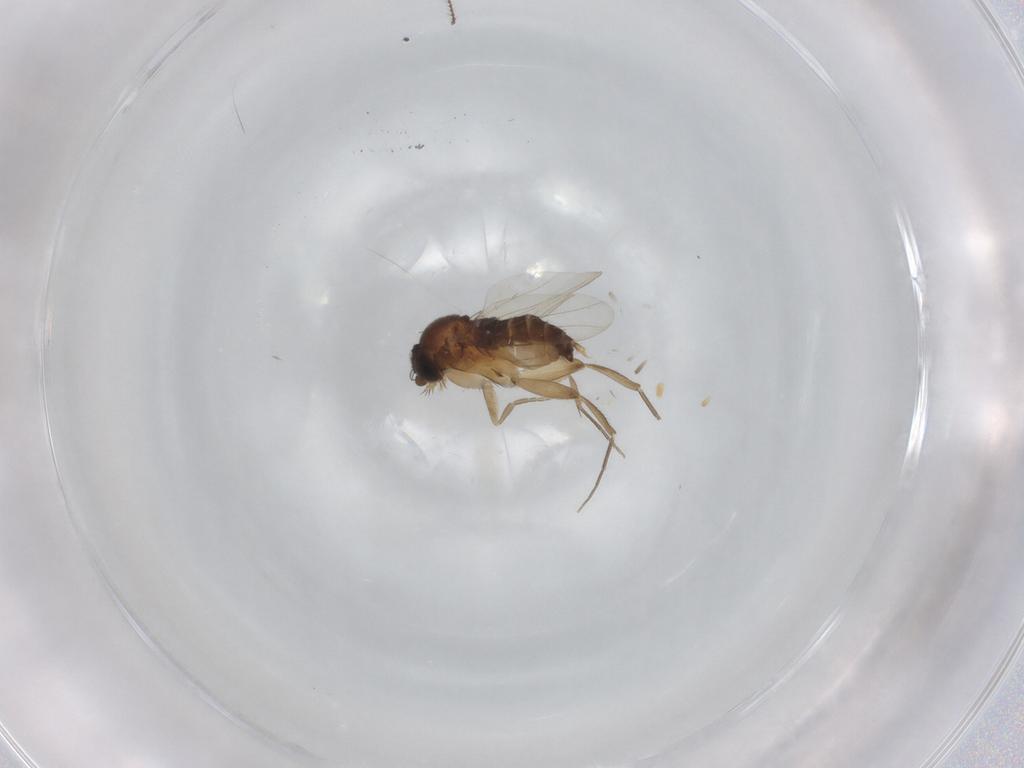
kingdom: Animalia
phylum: Arthropoda
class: Insecta
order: Diptera
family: Phoridae
